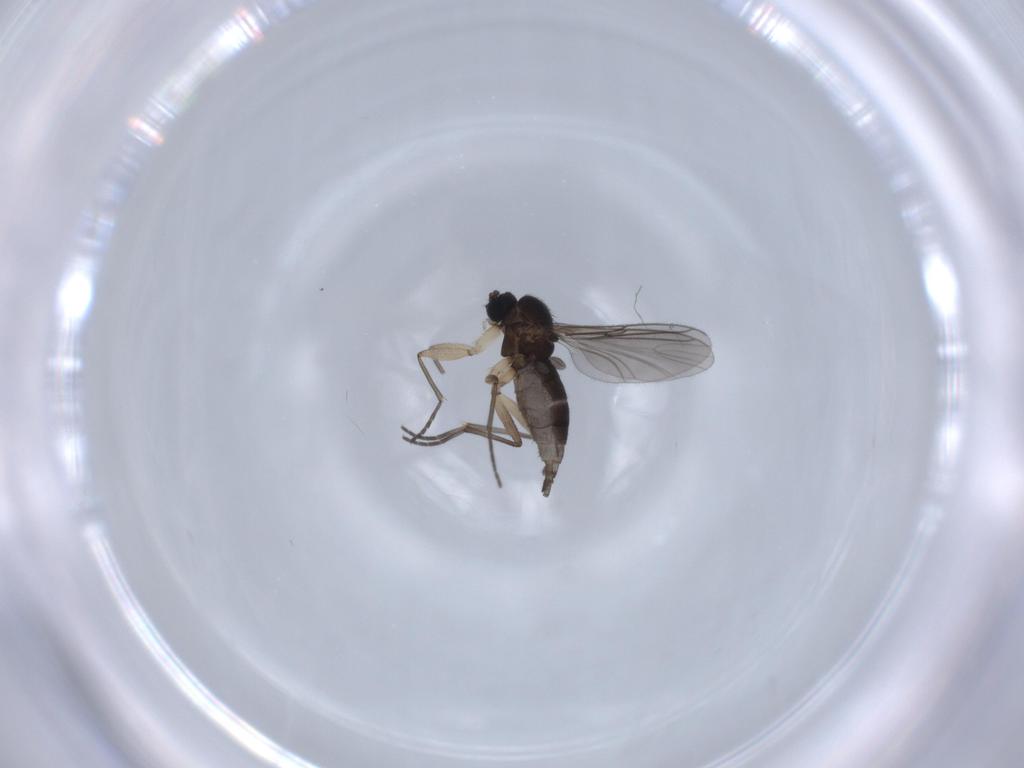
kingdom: Animalia
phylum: Arthropoda
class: Insecta
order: Diptera
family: Sciaridae
